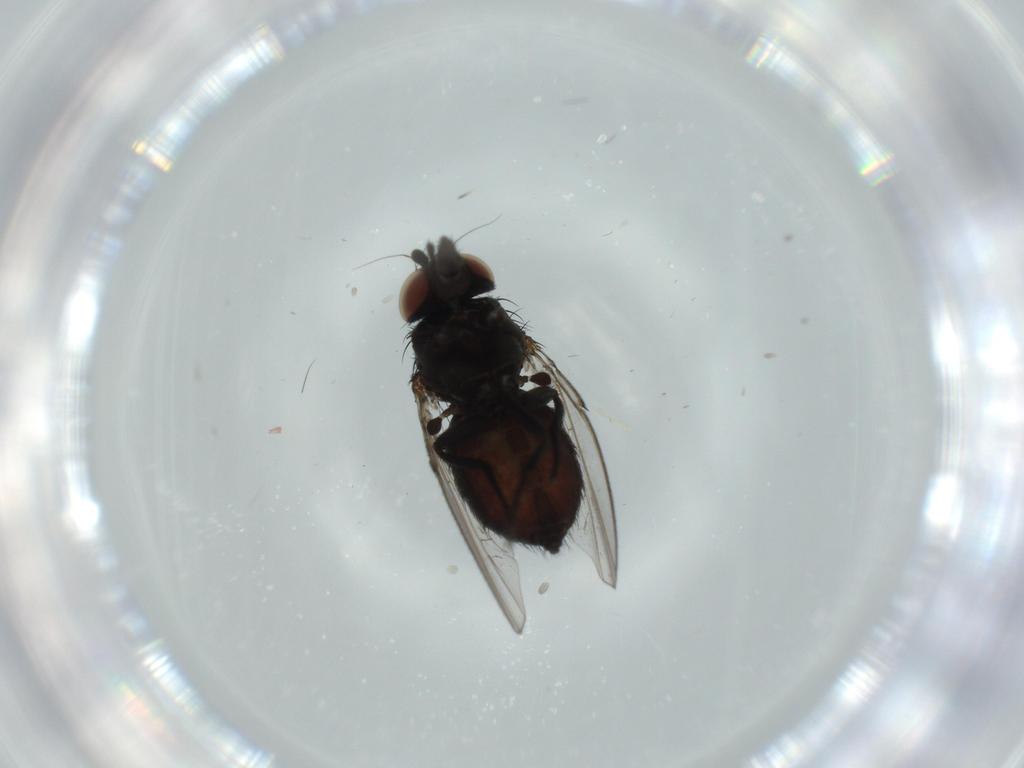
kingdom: Animalia
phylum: Arthropoda
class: Insecta
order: Diptera
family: Milichiidae
